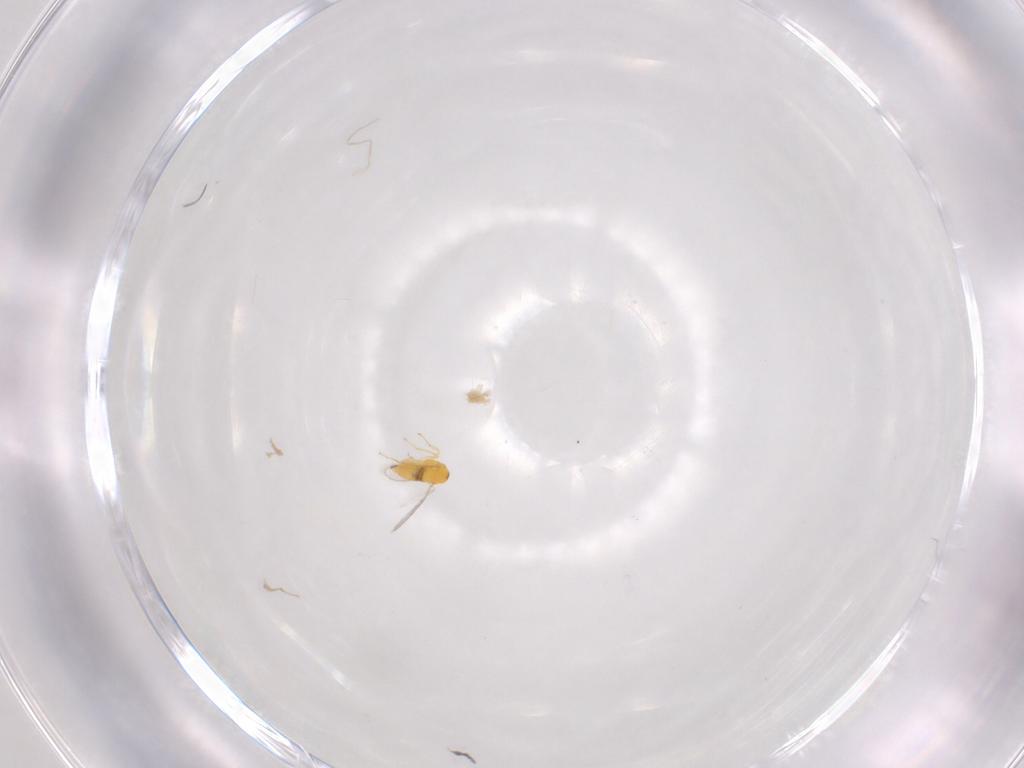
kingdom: Animalia
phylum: Arthropoda
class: Insecta
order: Hymenoptera
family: Aphelinidae
